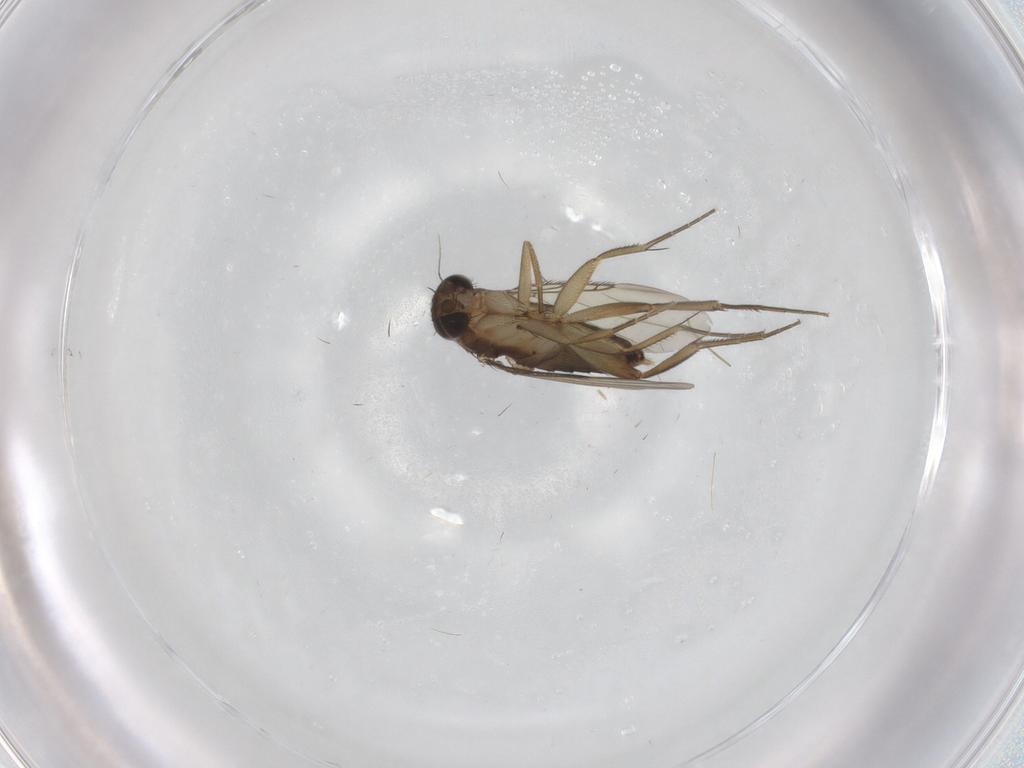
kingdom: Animalia
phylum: Arthropoda
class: Insecta
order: Diptera
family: Phoridae
